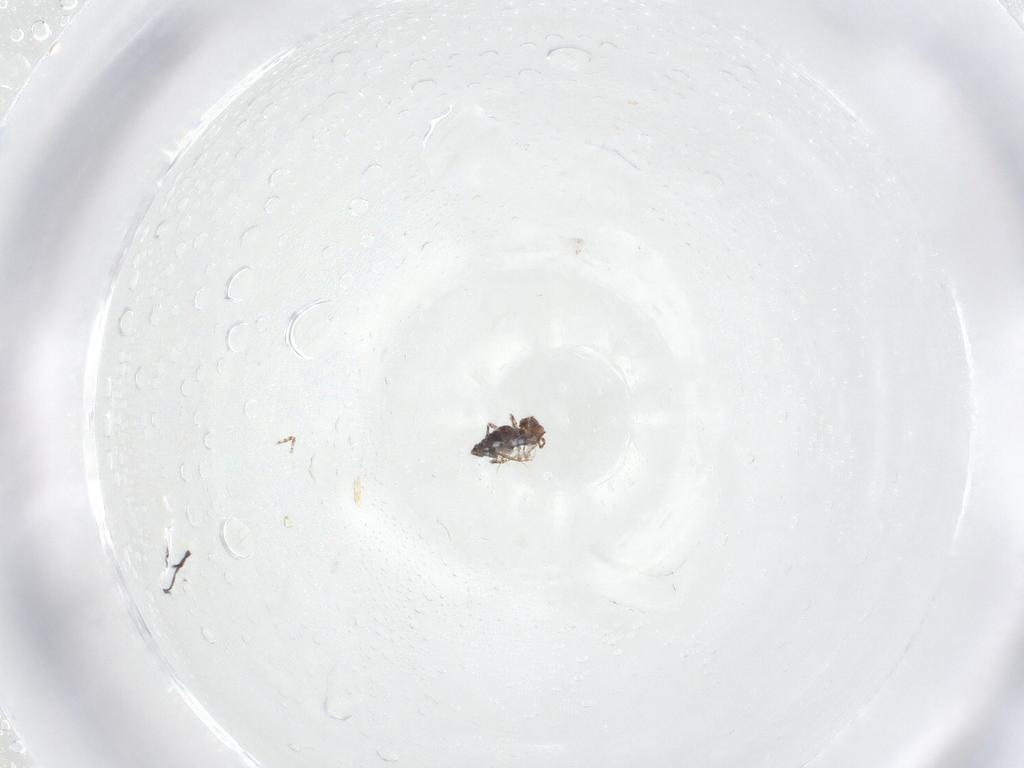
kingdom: Animalia
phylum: Arthropoda
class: Collembola
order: Symphypleona
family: Bourletiellidae
